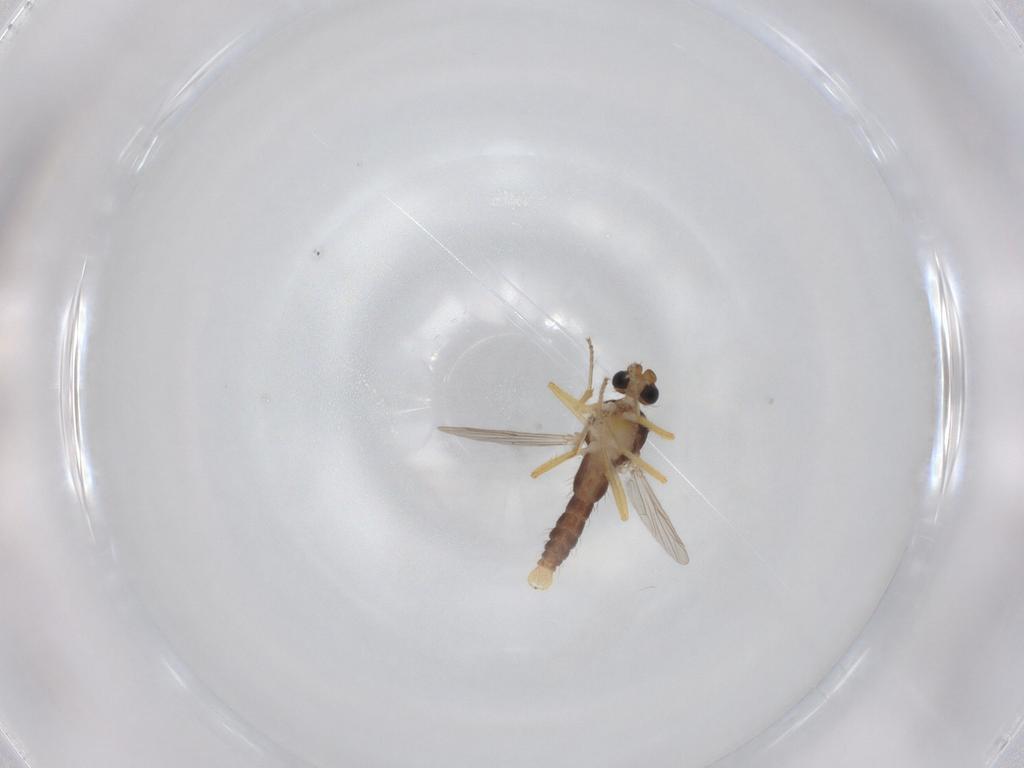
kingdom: Animalia
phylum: Arthropoda
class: Insecta
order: Diptera
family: Ceratopogonidae
